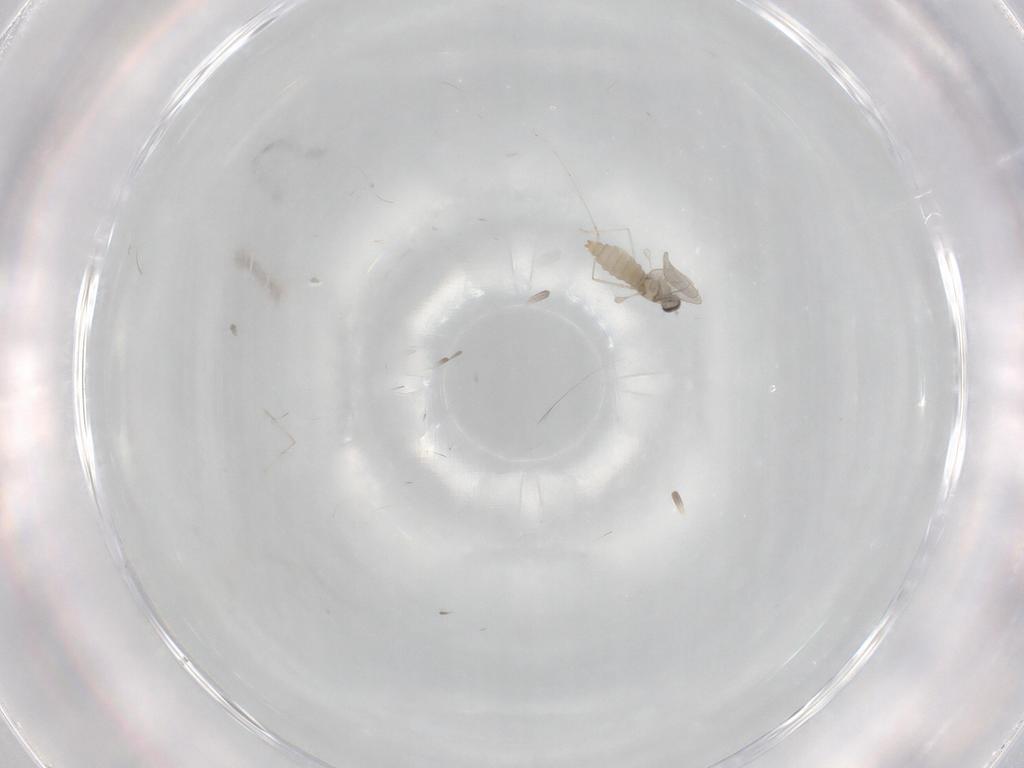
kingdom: Animalia
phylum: Arthropoda
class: Insecta
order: Diptera
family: Cecidomyiidae
